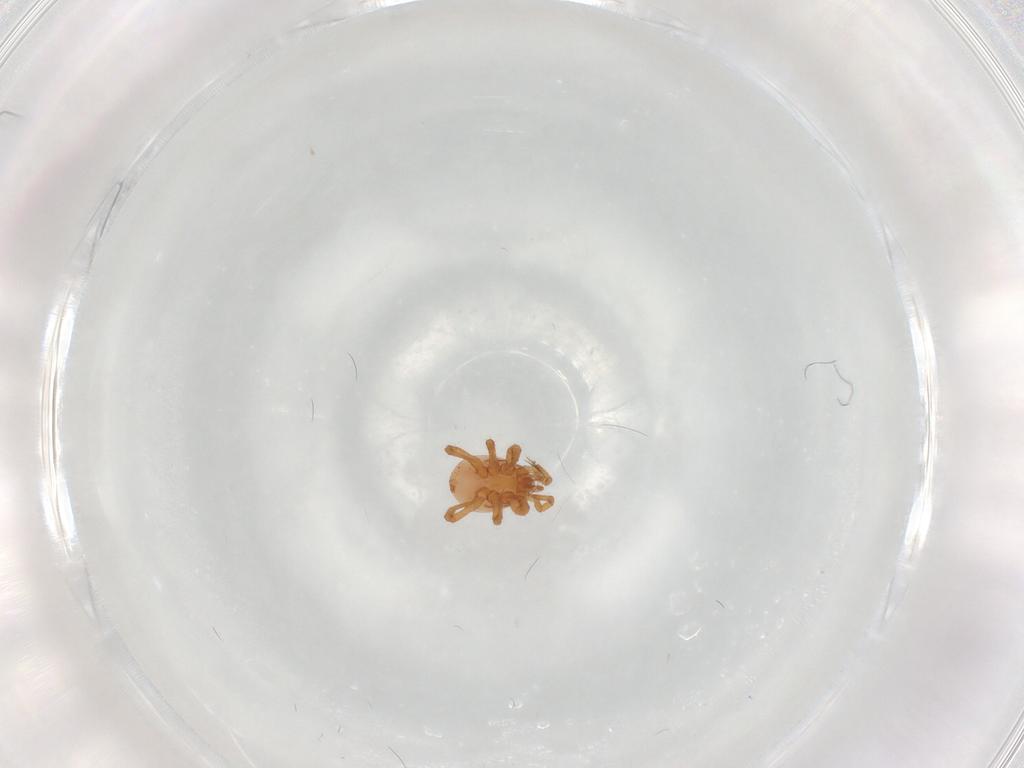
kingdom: Animalia
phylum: Arthropoda
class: Arachnida
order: Mesostigmata
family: Parasitidae
